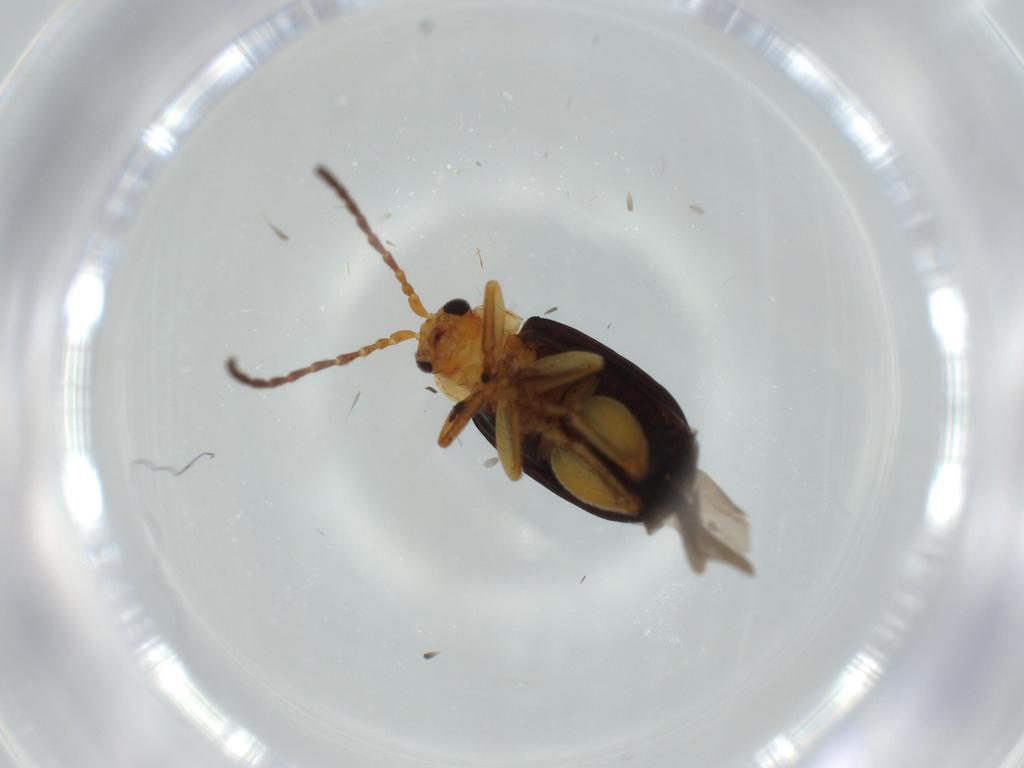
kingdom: Animalia
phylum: Arthropoda
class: Insecta
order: Coleoptera
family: Chrysomelidae
